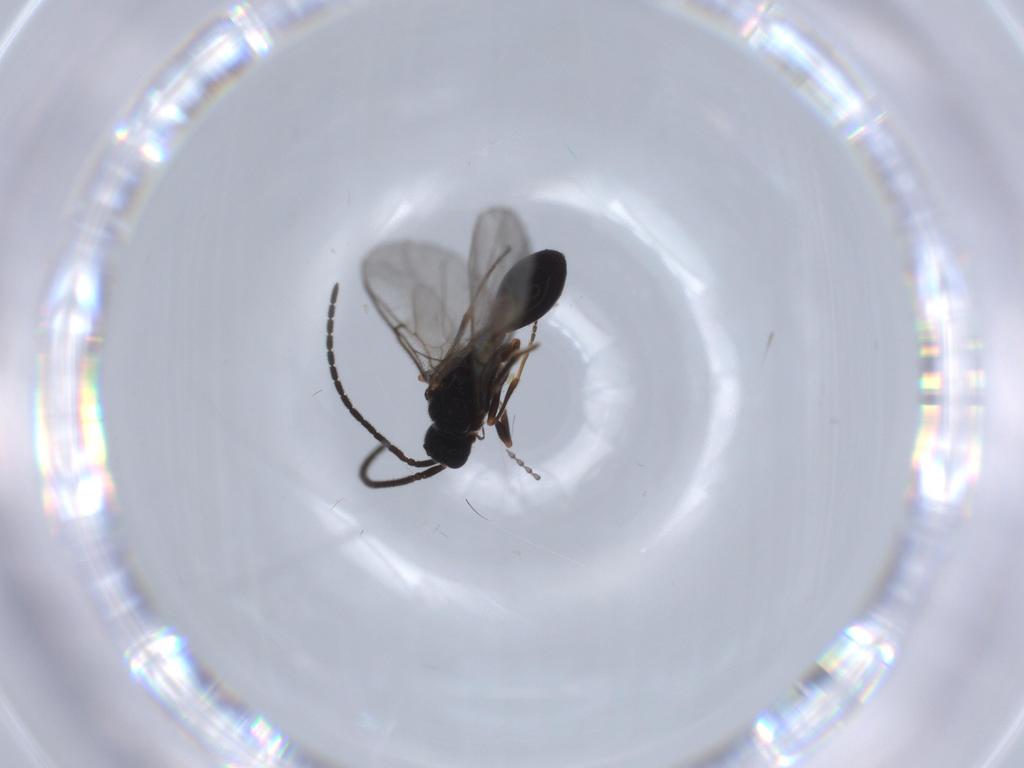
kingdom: Animalia
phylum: Arthropoda
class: Insecta
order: Hymenoptera
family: Diapriidae
